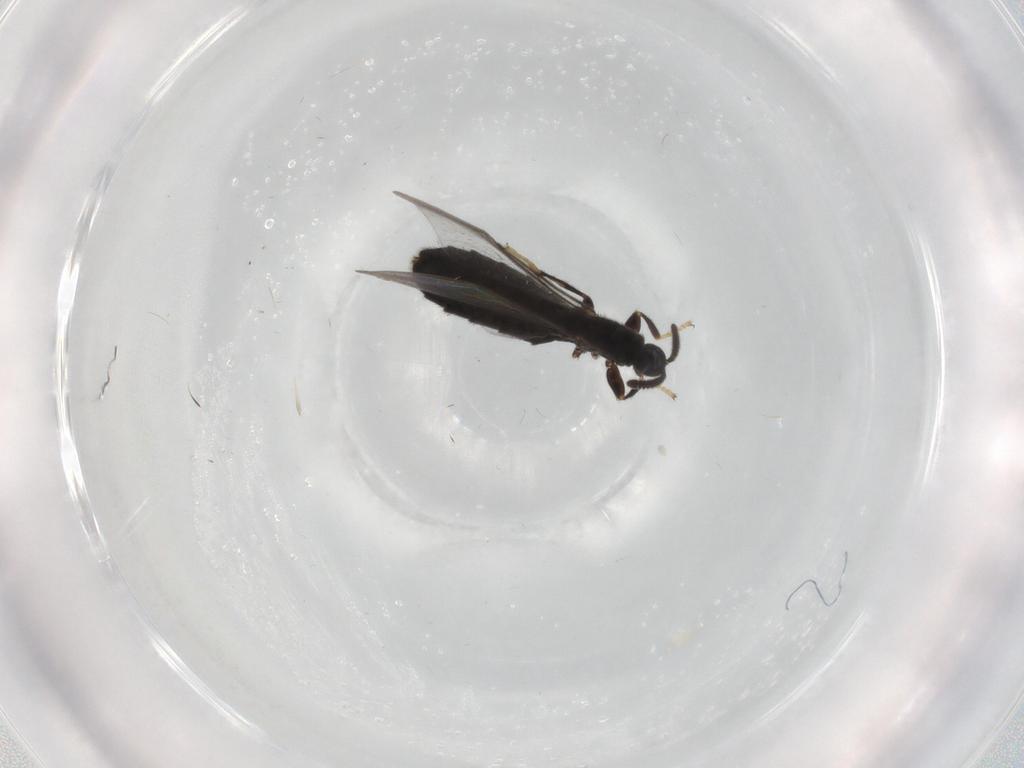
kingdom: Animalia
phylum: Arthropoda
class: Insecta
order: Diptera
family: Scatopsidae
